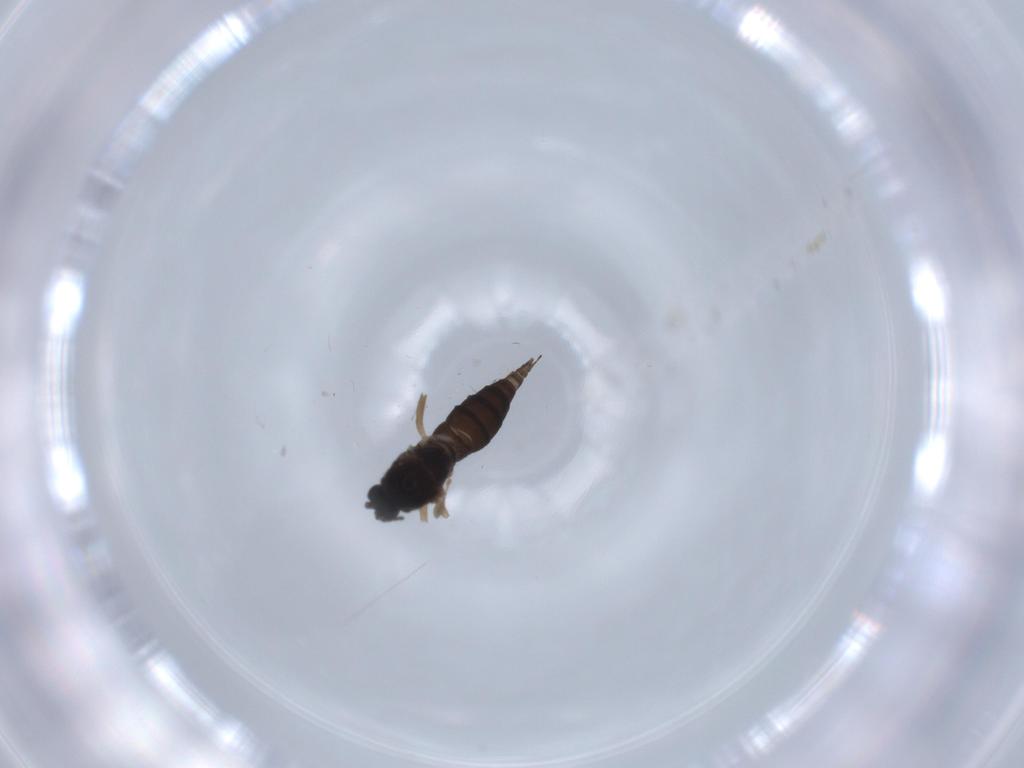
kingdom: Animalia
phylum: Arthropoda
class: Insecta
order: Diptera
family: Sciaridae
